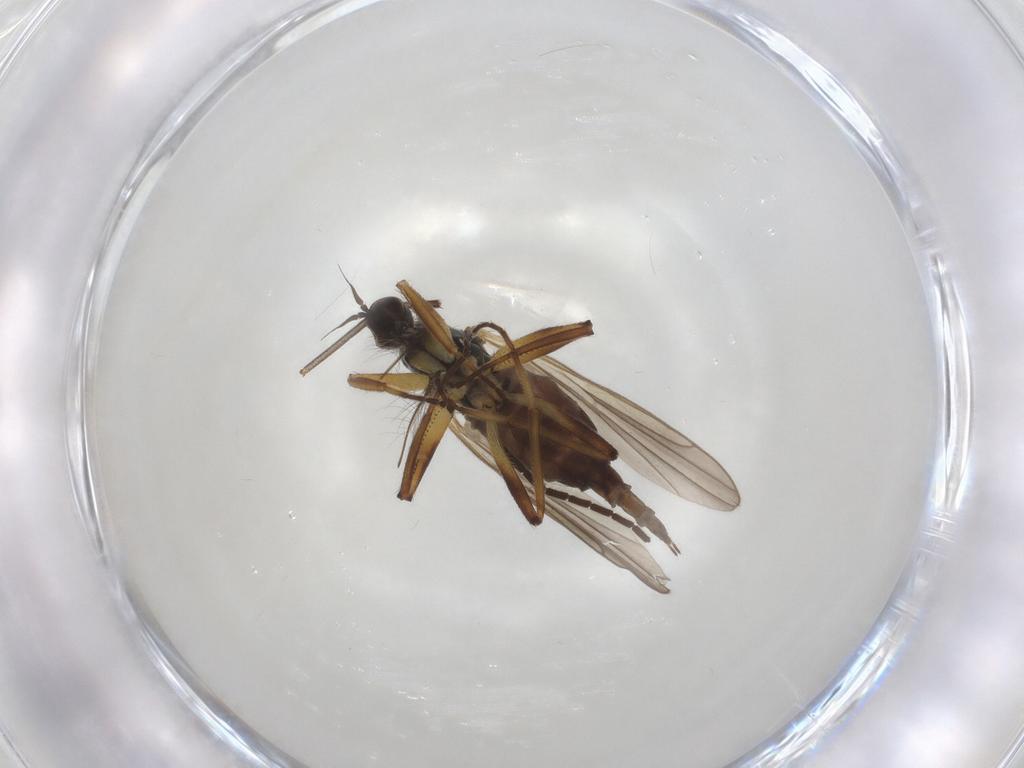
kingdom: Animalia
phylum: Arthropoda
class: Insecta
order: Diptera
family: Hybotidae
